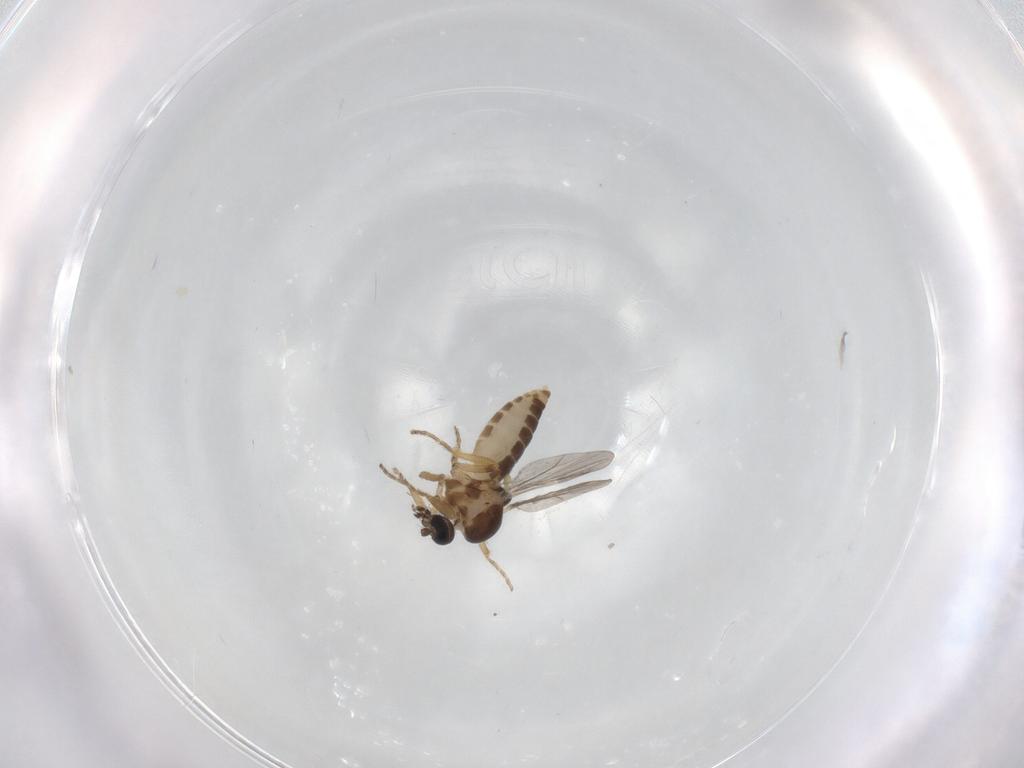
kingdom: Animalia
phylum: Arthropoda
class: Insecta
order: Diptera
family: Ceratopogonidae
